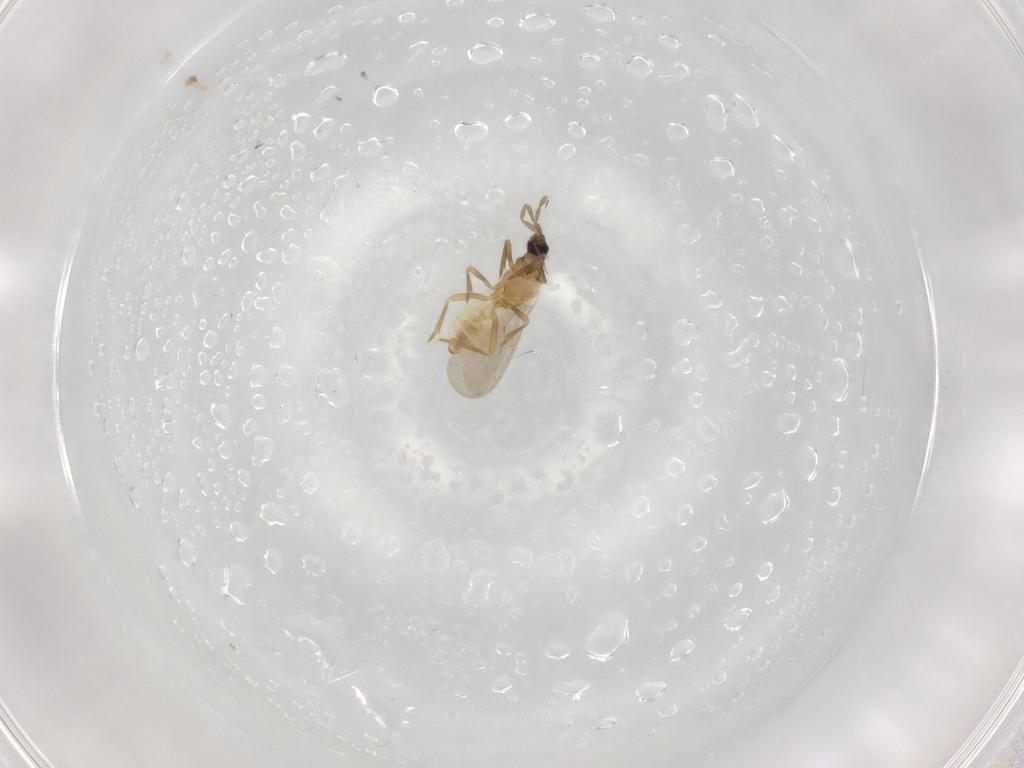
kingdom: Animalia
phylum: Arthropoda
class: Insecta
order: Hemiptera
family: Enicocephalidae
